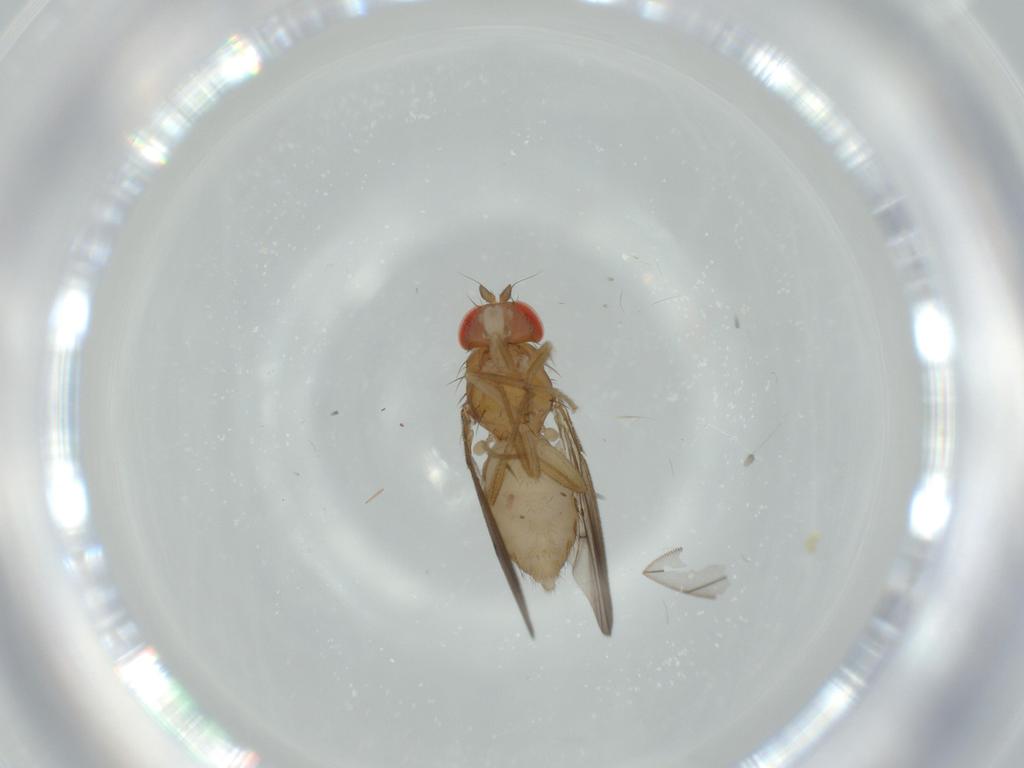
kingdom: Animalia
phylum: Arthropoda
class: Insecta
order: Diptera
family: Drosophilidae
